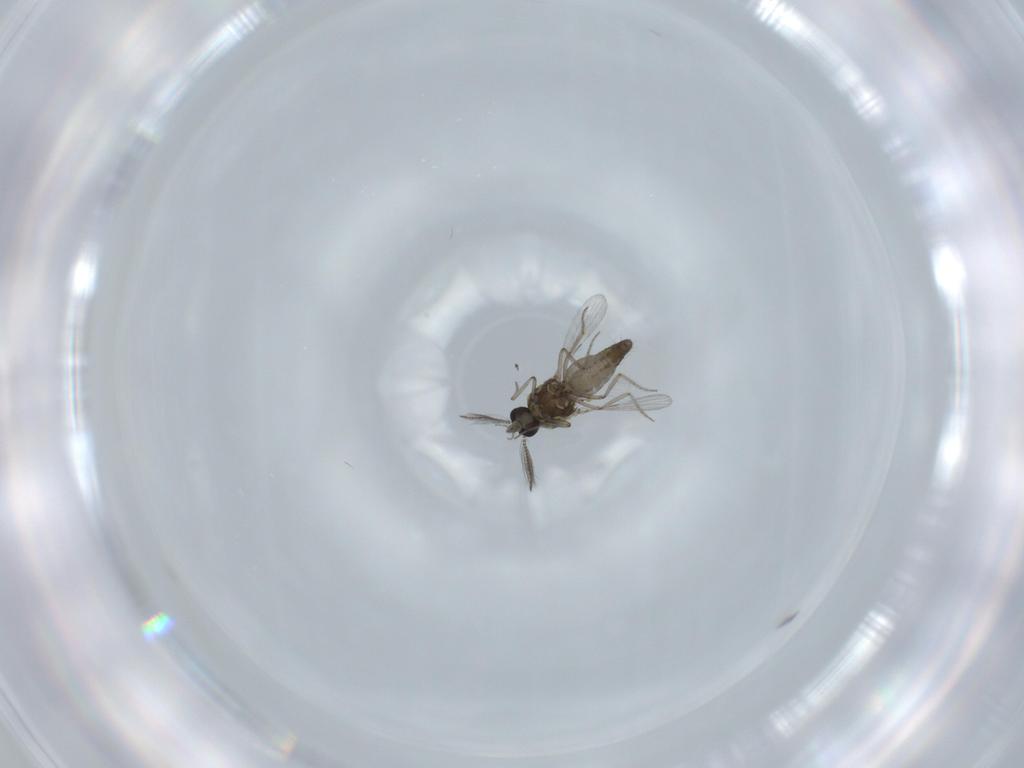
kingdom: Animalia
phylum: Arthropoda
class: Insecta
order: Diptera
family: Ceratopogonidae
